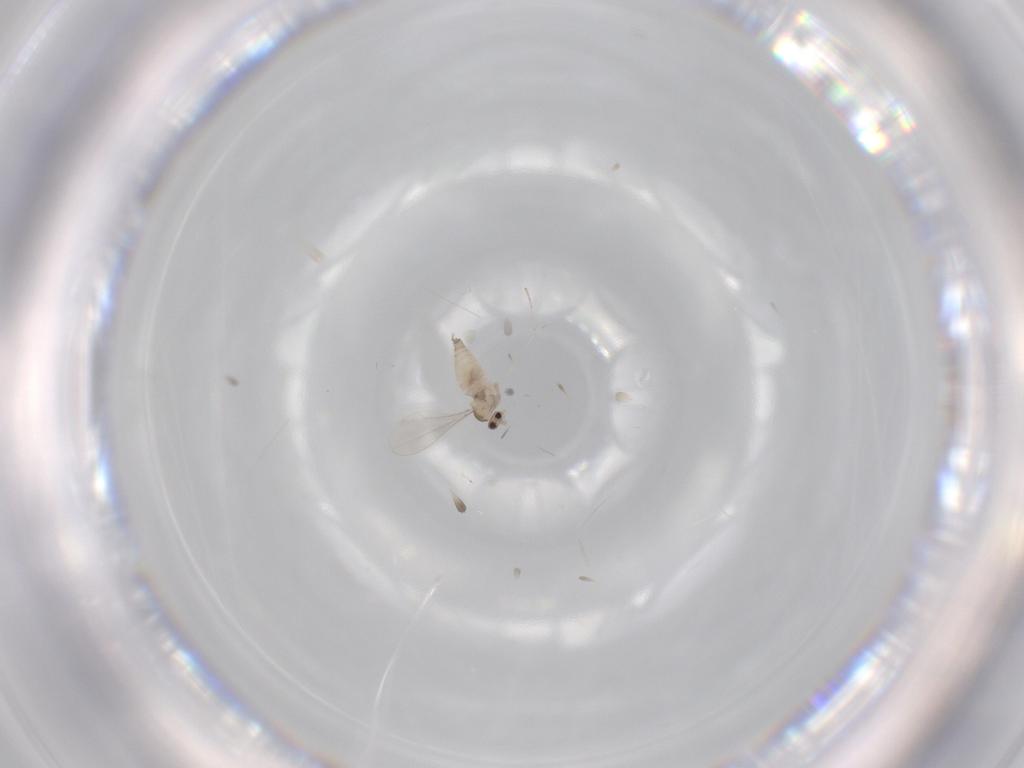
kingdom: Animalia
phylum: Arthropoda
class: Insecta
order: Diptera
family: Cecidomyiidae
